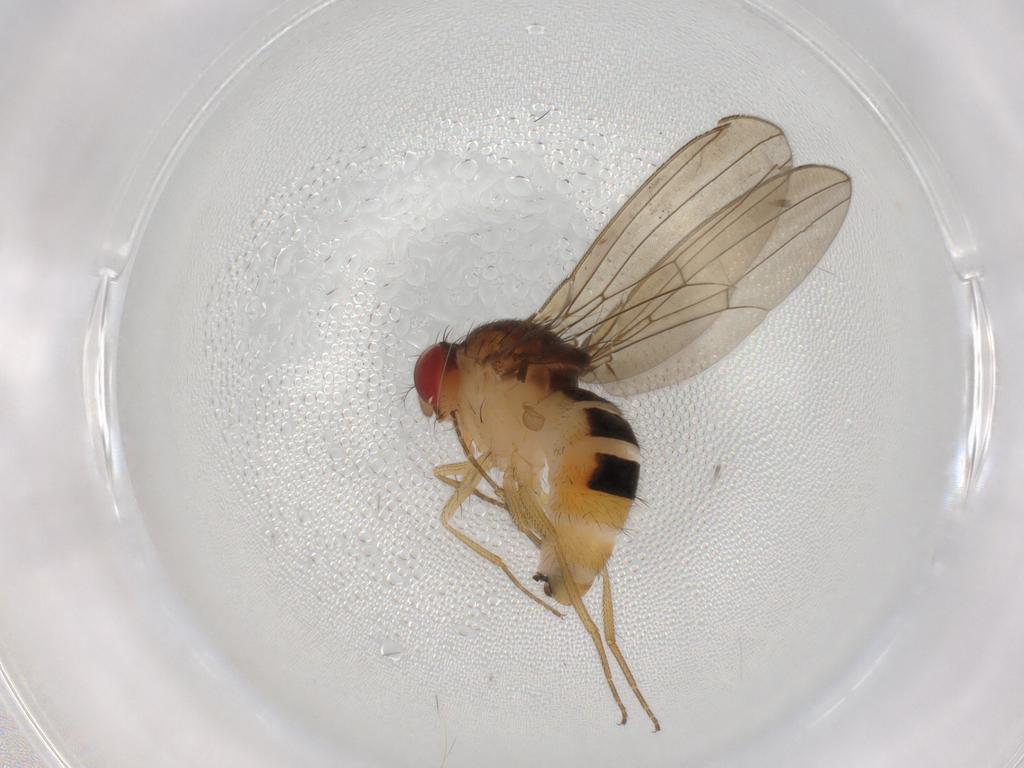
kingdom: Animalia
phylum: Arthropoda
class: Insecta
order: Diptera
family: Drosophilidae
